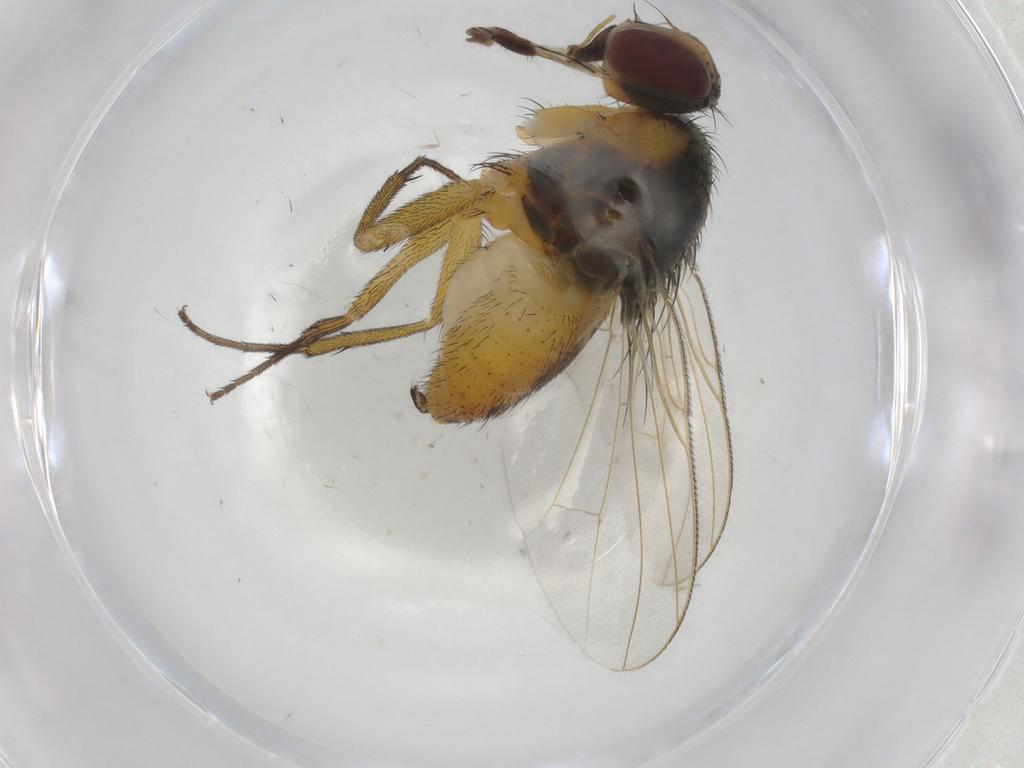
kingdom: Animalia
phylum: Arthropoda
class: Insecta
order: Diptera
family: Muscidae
